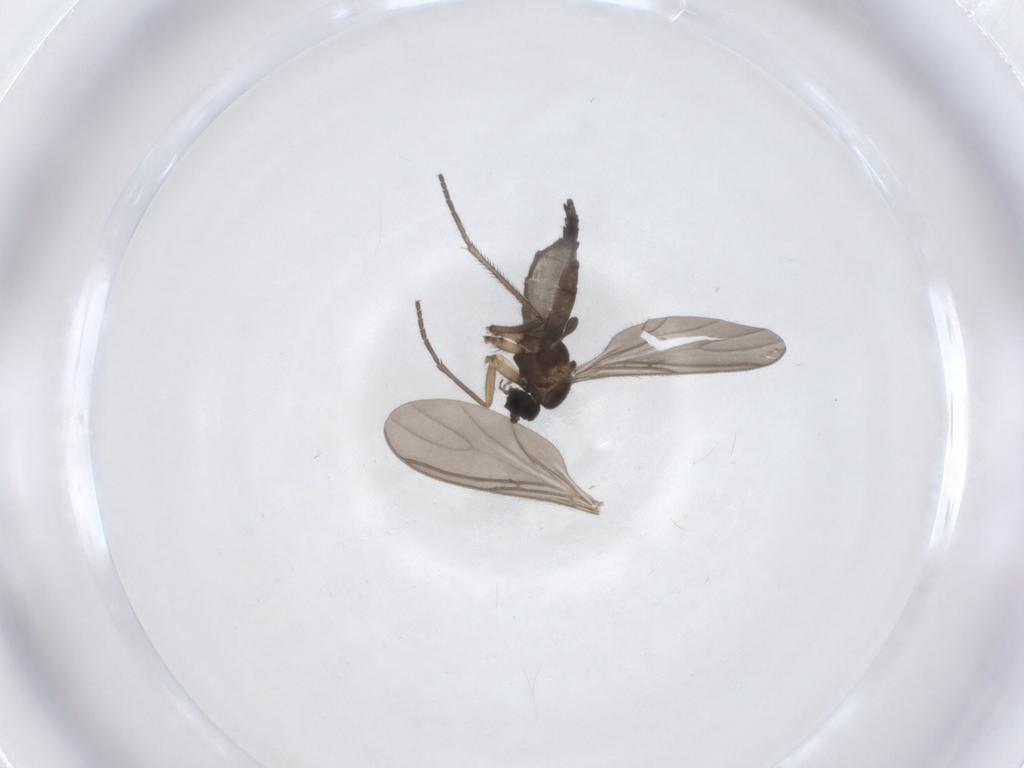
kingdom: Animalia
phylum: Arthropoda
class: Insecta
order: Diptera
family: Sciaridae
